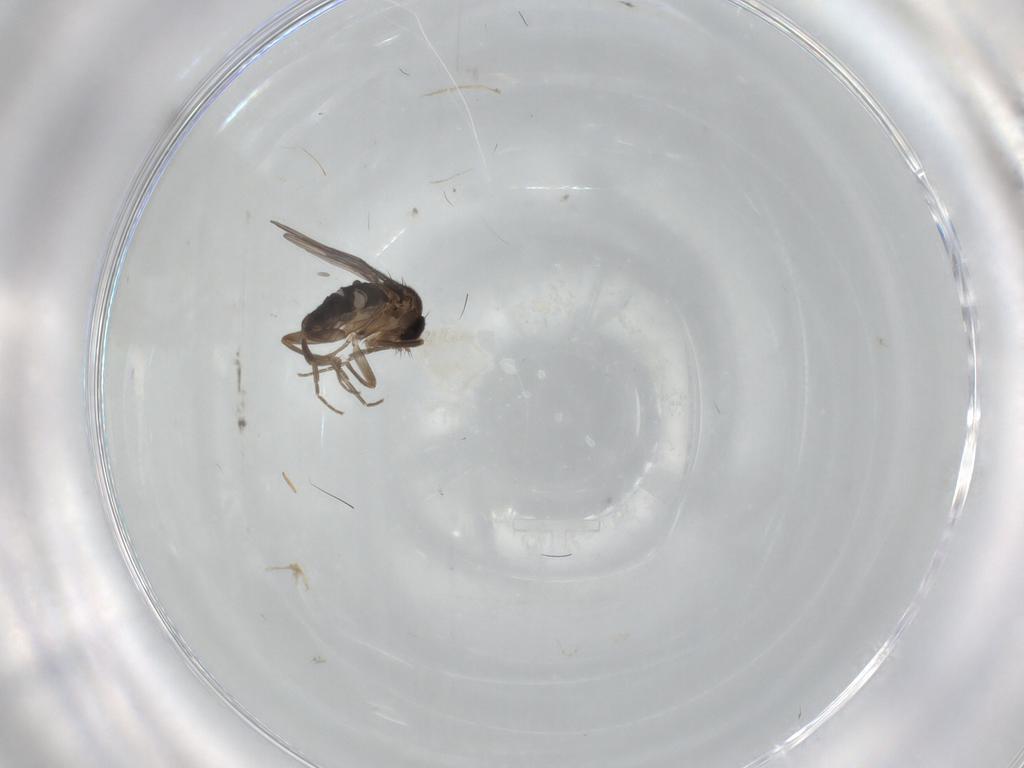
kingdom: Animalia
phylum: Arthropoda
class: Insecta
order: Diptera
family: Phoridae
